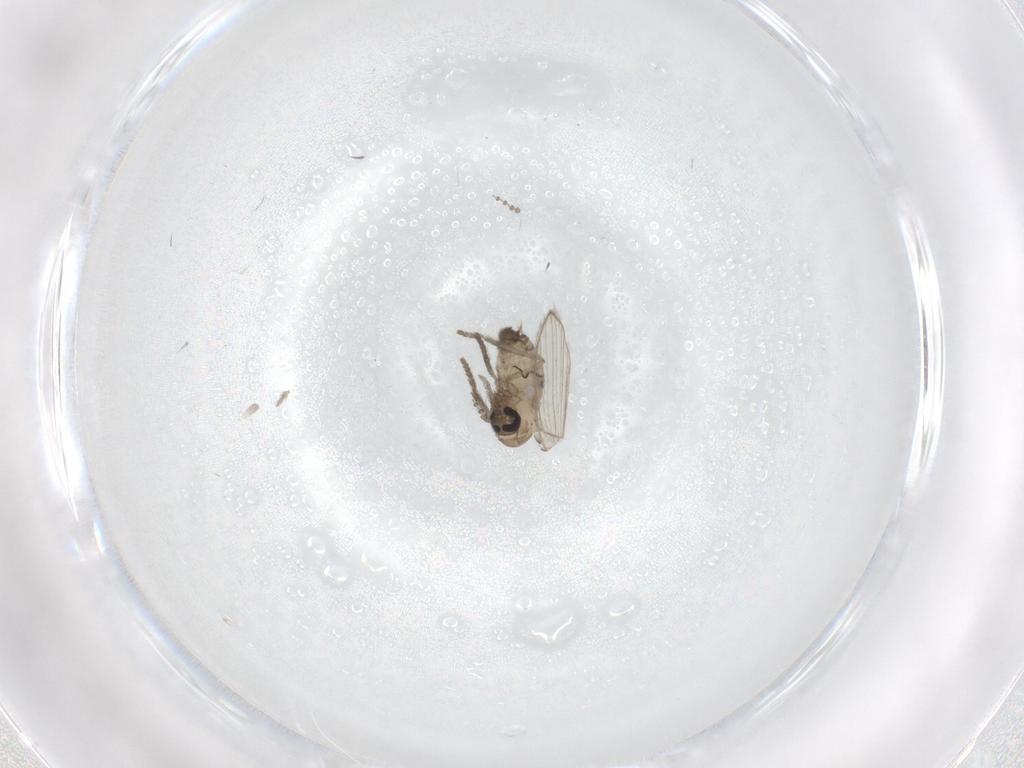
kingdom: Animalia
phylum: Arthropoda
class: Insecta
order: Diptera
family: Psychodidae
